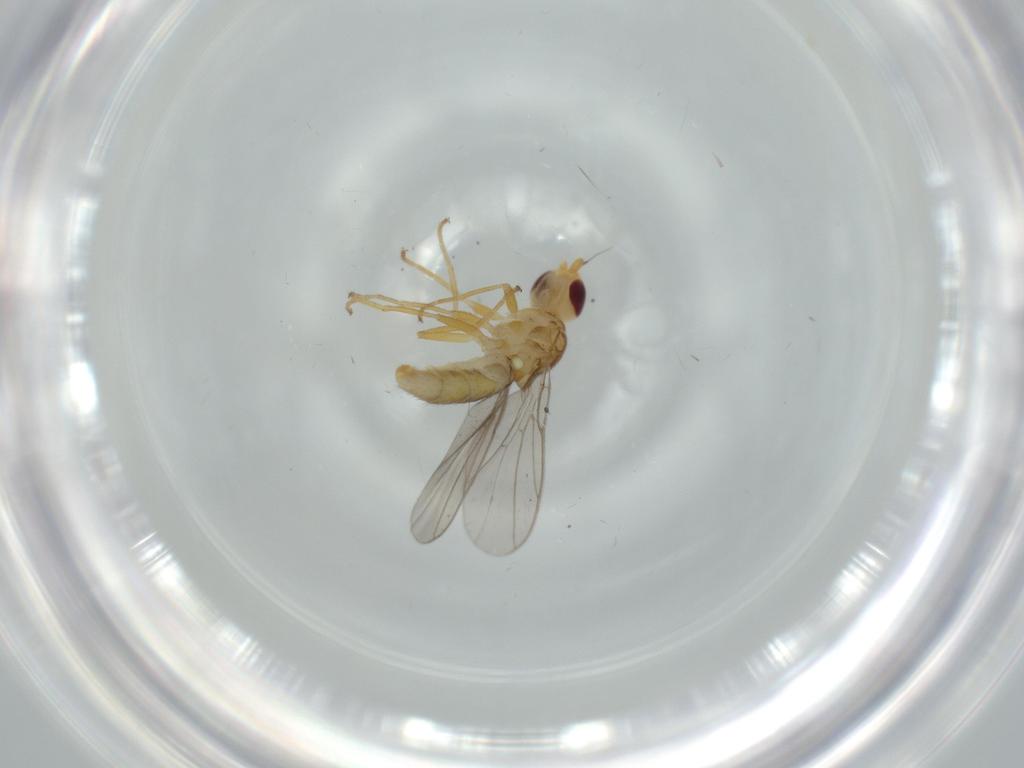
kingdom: Animalia
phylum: Arthropoda
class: Insecta
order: Diptera
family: Chloropidae
